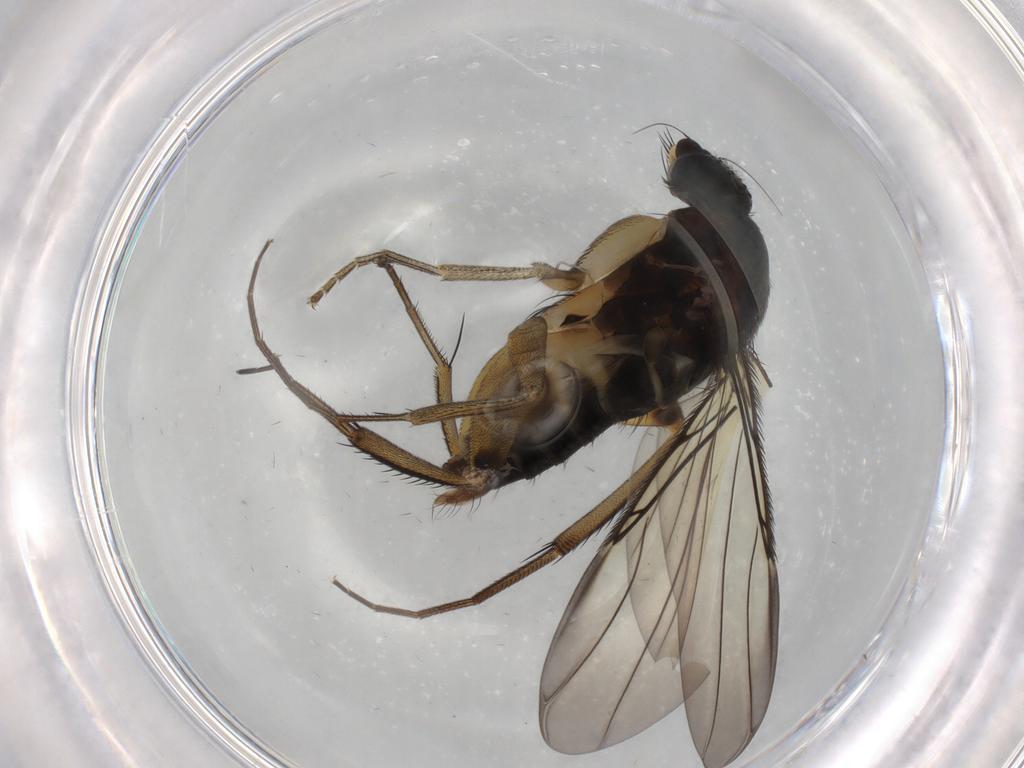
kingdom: Animalia
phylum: Arthropoda
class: Insecta
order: Diptera
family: Phoridae
